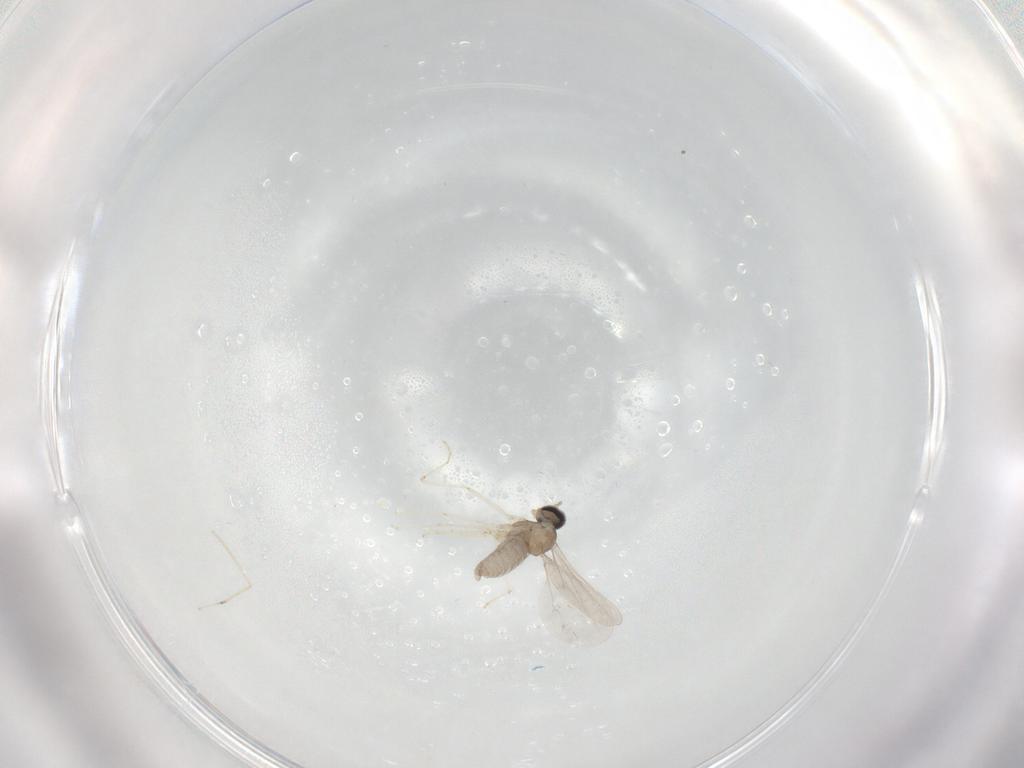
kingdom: Animalia
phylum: Arthropoda
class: Insecta
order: Diptera
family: Cecidomyiidae
